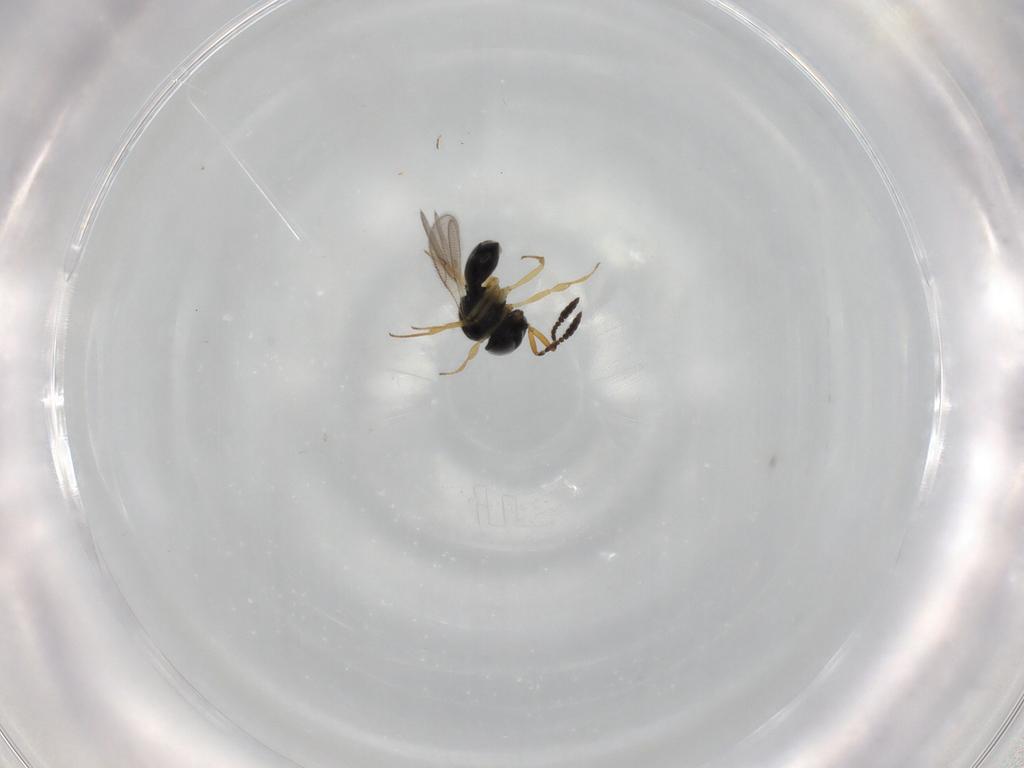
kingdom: Animalia
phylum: Arthropoda
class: Insecta
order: Hymenoptera
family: Scelionidae
